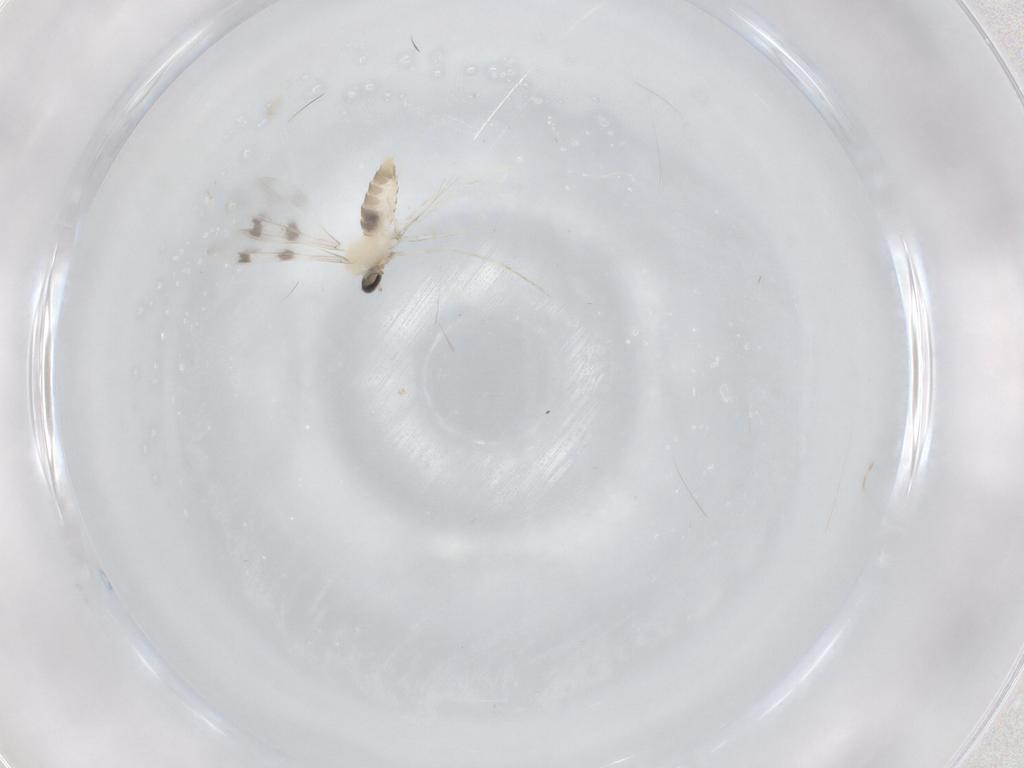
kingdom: Animalia
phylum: Arthropoda
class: Insecta
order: Diptera
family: Cecidomyiidae
